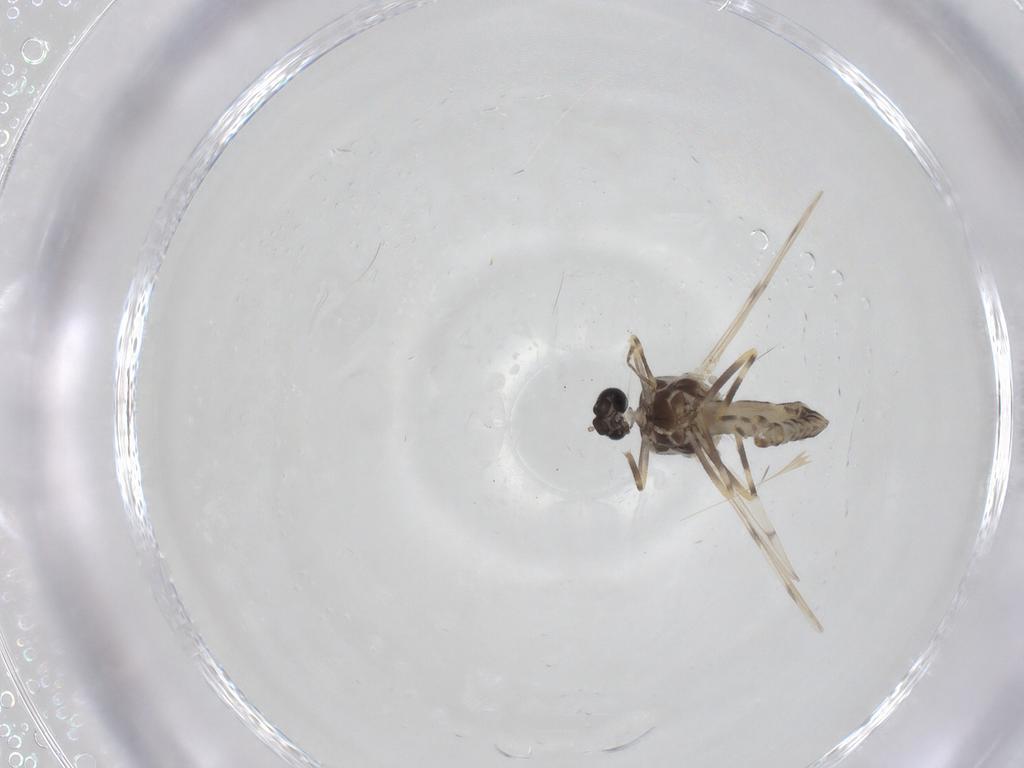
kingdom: Animalia
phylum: Arthropoda
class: Insecta
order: Diptera
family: Ceratopogonidae
